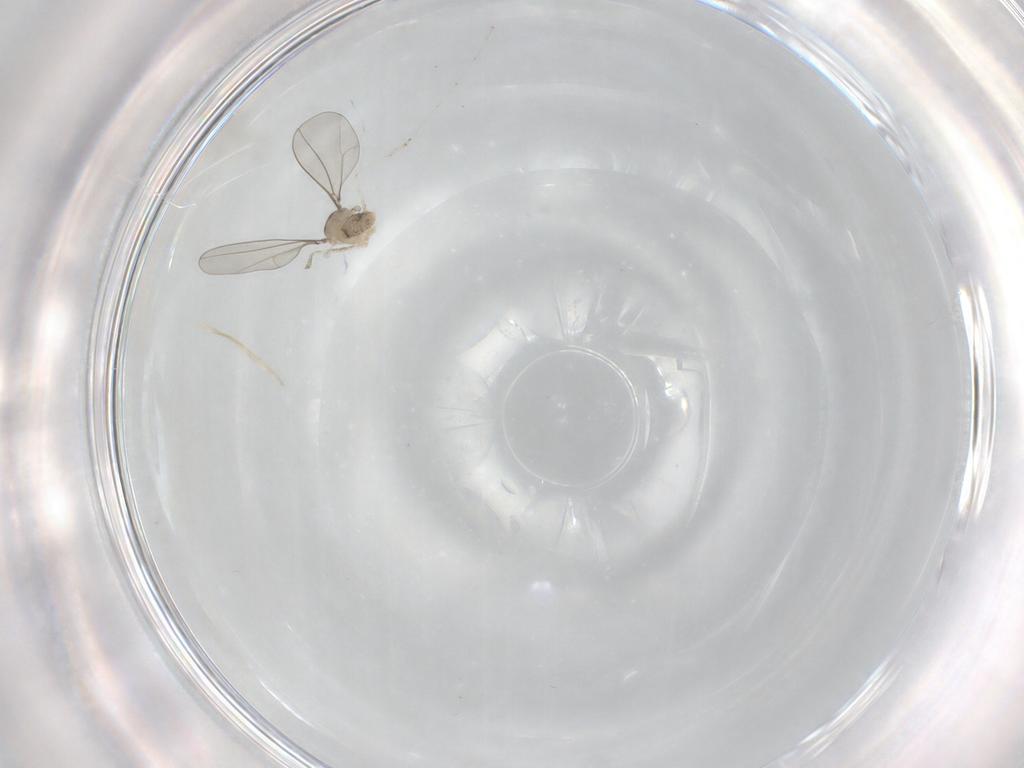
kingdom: Animalia
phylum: Arthropoda
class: Insecta
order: Diptera
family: Cecidomyiidae
